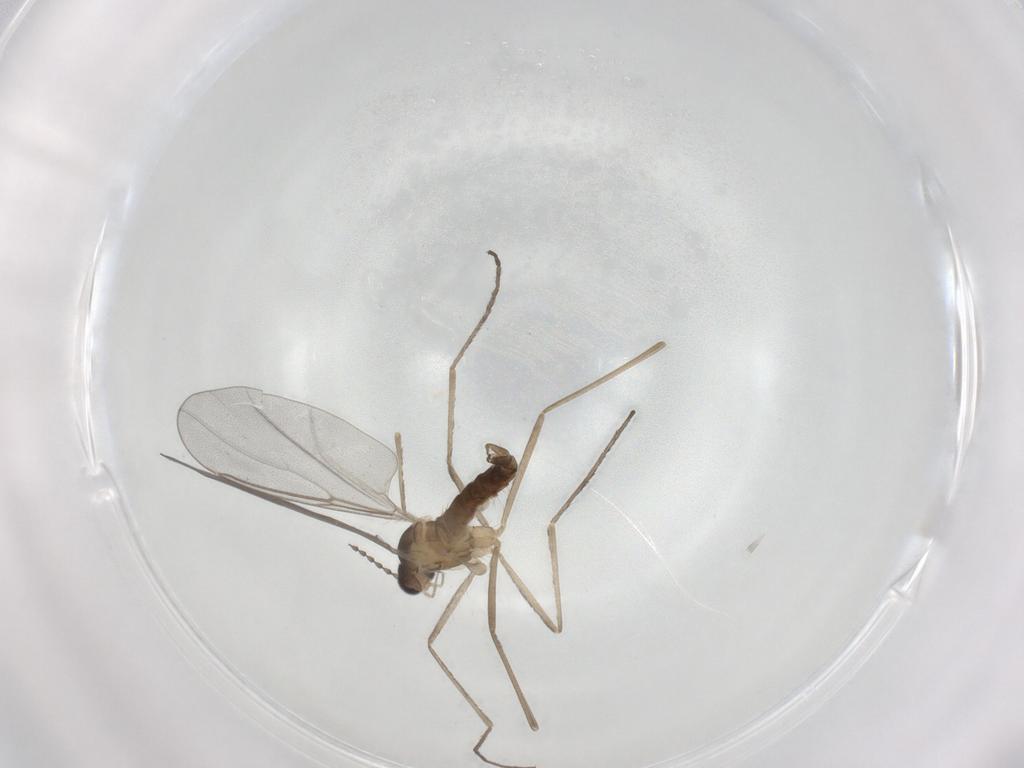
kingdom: Animalia
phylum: Arthropoda
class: Insecta
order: Diptera
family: Cecidomyiidae
